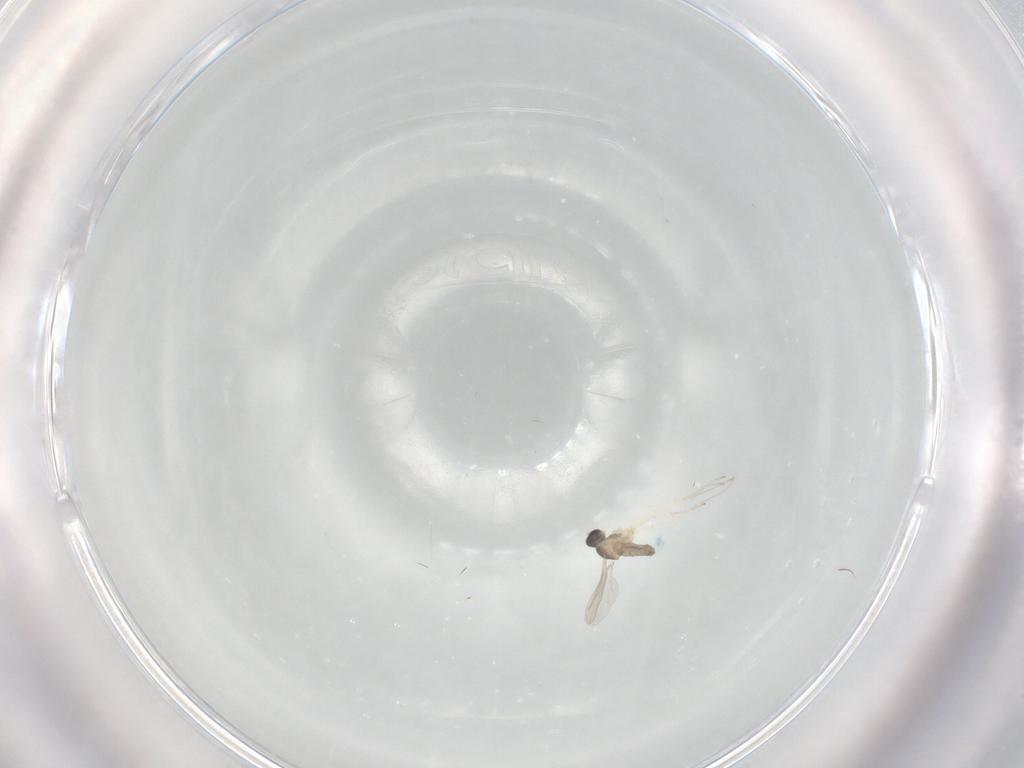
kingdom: Animalia
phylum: Arthropoda
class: Insecta
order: Diptera
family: Cecidomyiidae
